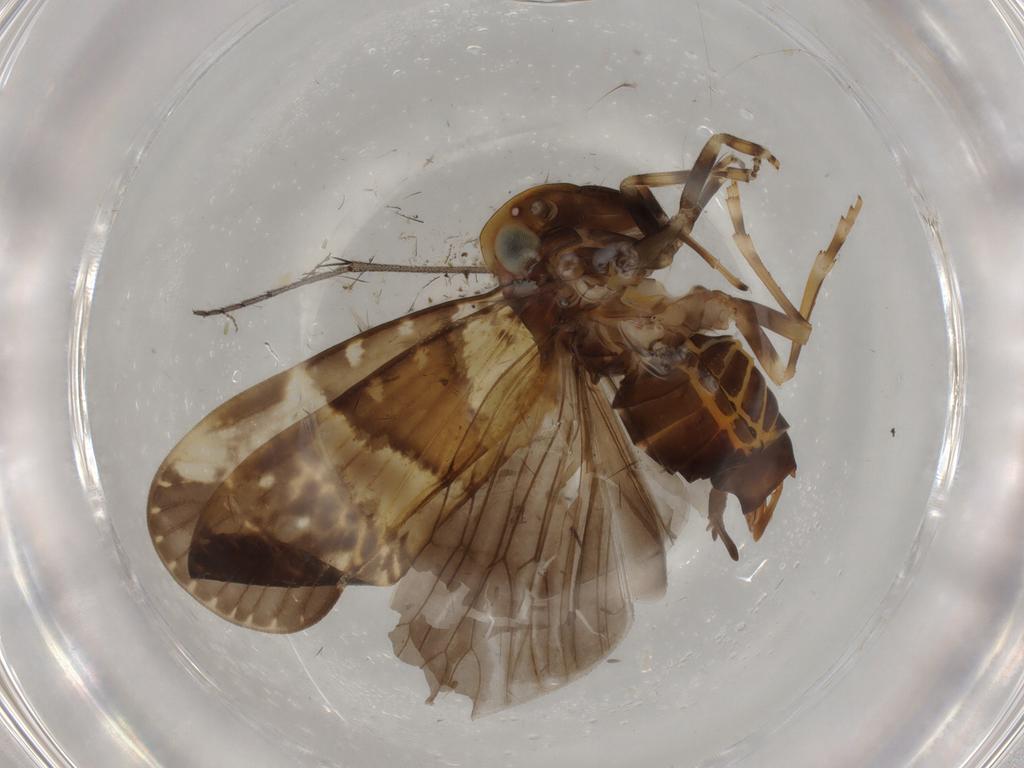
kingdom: Animalia
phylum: Arthropoda
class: Insecta
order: Hemiptera
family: Cixiidae
